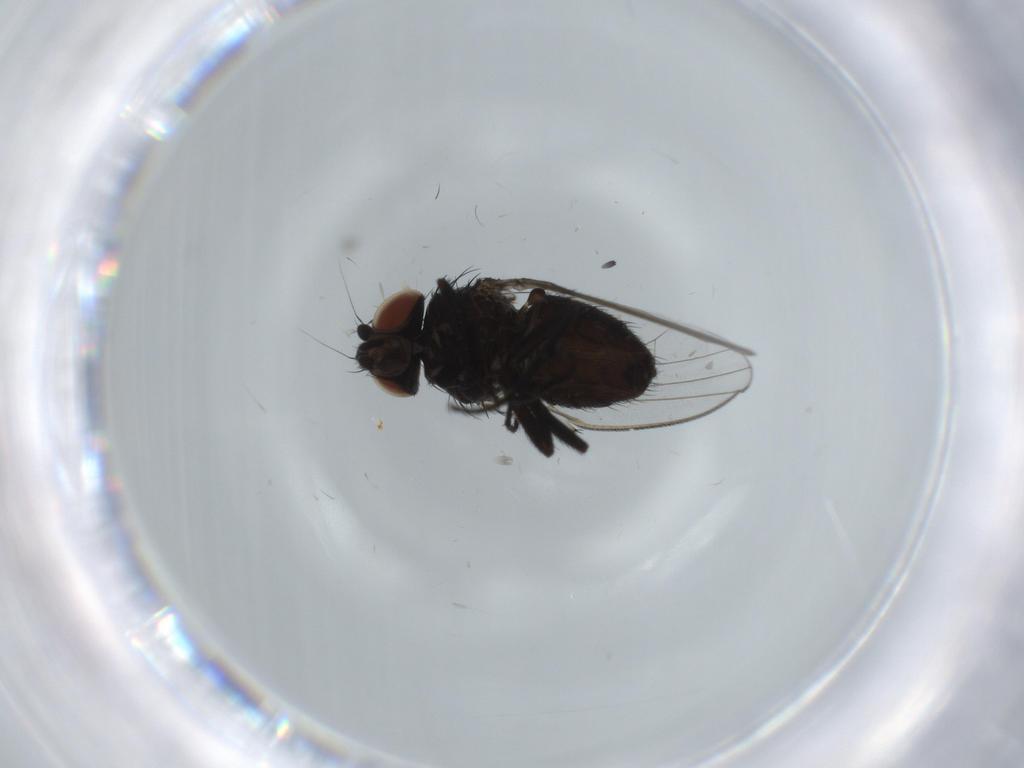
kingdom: Animalia
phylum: Arthropoda
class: Insecta
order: Diptera
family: Milichiidae
